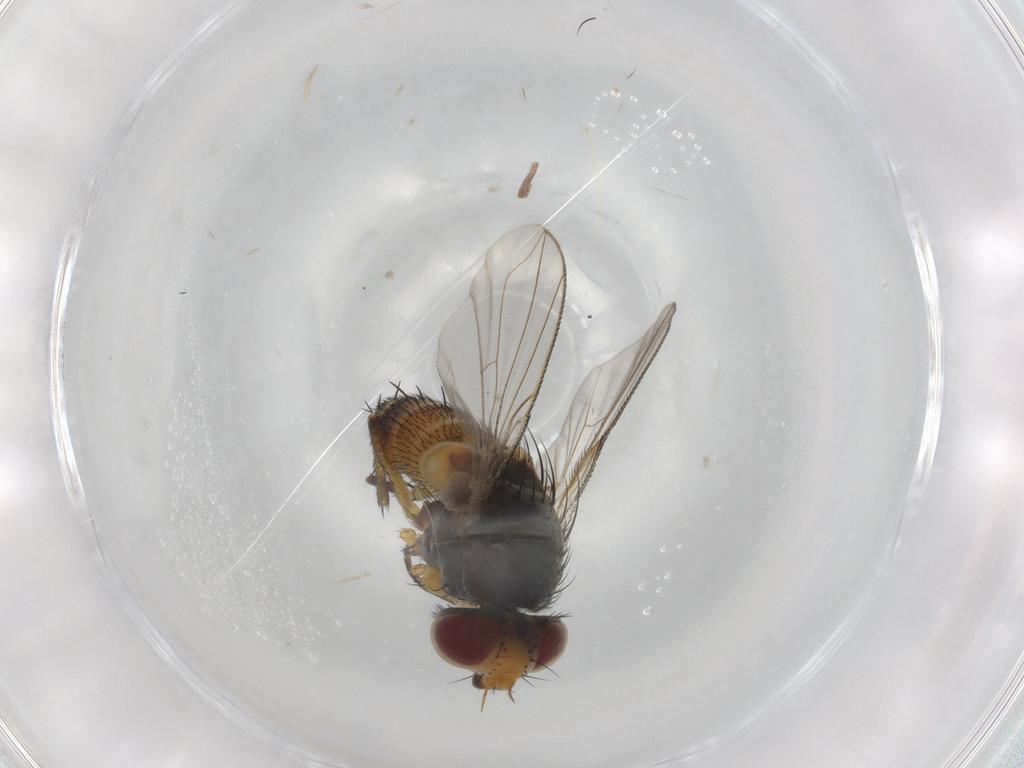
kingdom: Animalia
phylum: Arthropoda
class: Insecta
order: Diptera
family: Tachinidae
